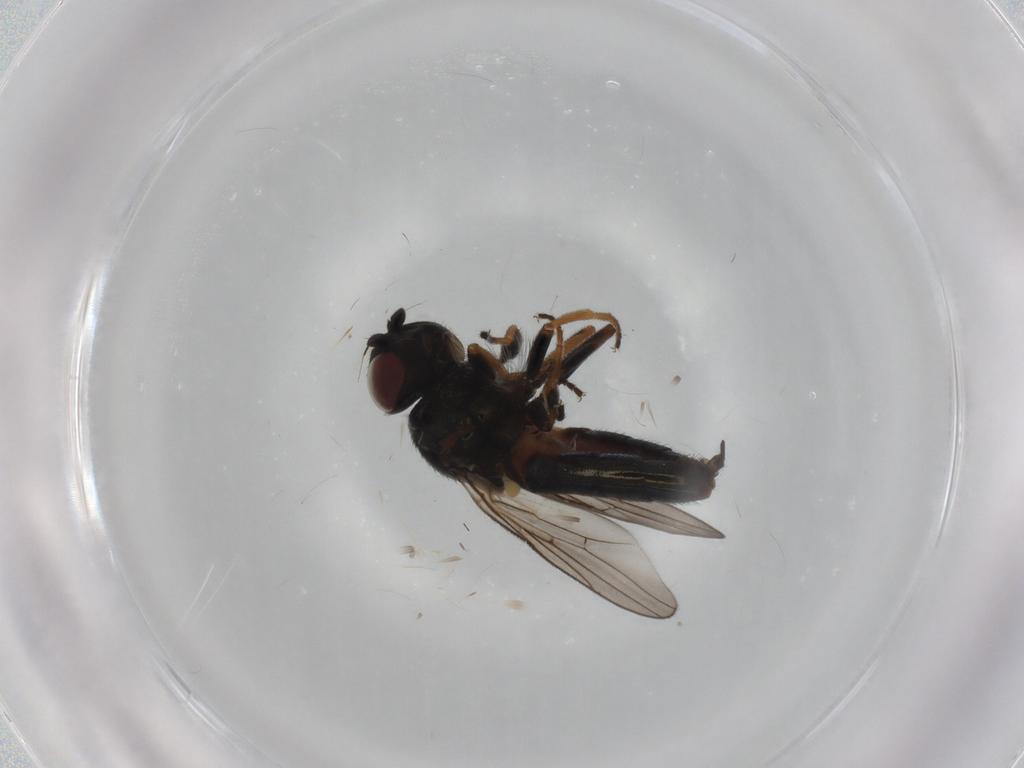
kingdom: Animalia
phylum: Arthropoda
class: Insecta
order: Diptera
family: Chloropidae
